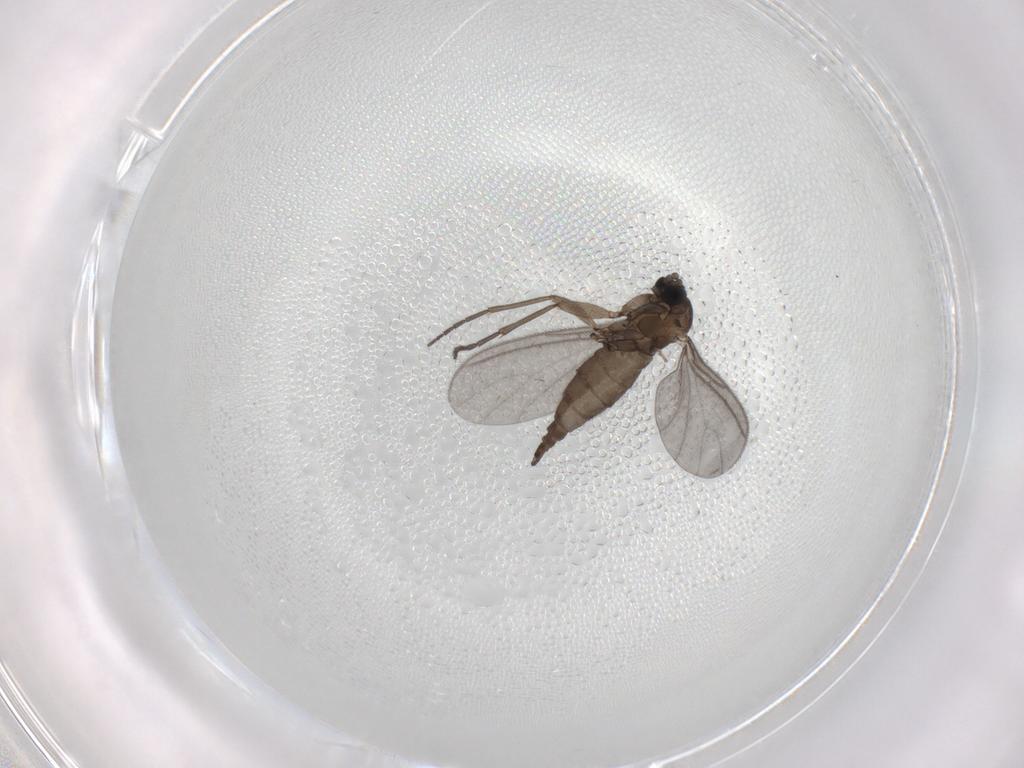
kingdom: Animalia
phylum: Arthropoda
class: Insecta
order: Diptera
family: Sciaridae
